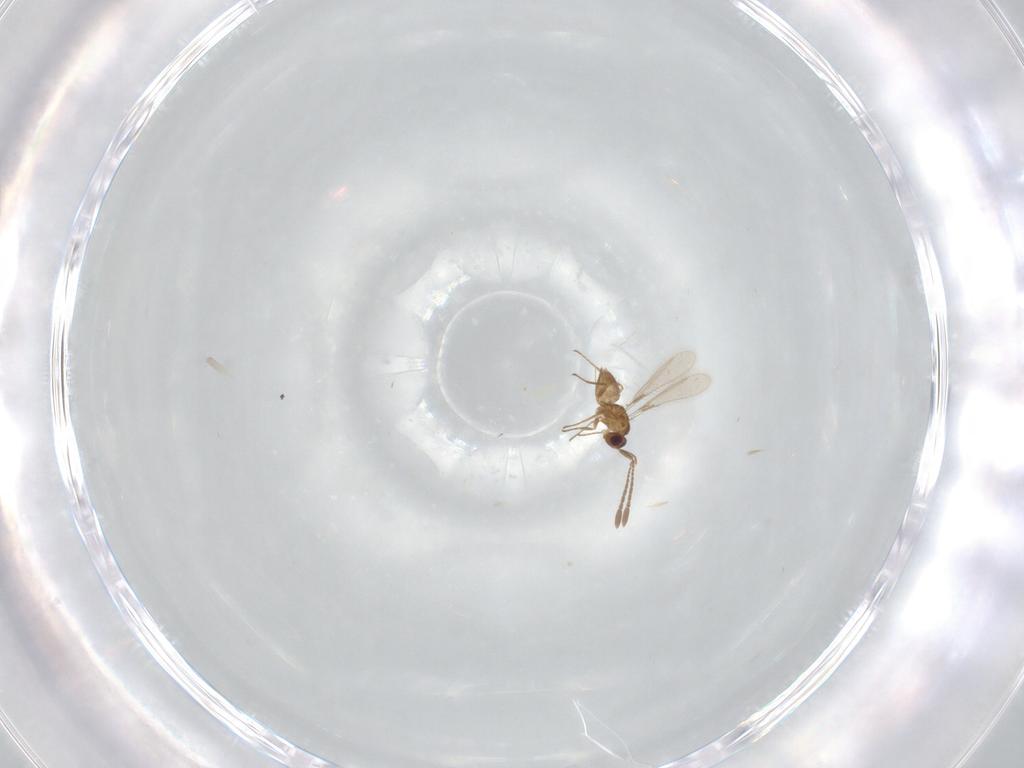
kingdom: Animalia
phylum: Arthropoda
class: Insecta
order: Hymenoptera
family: Mymaridae
